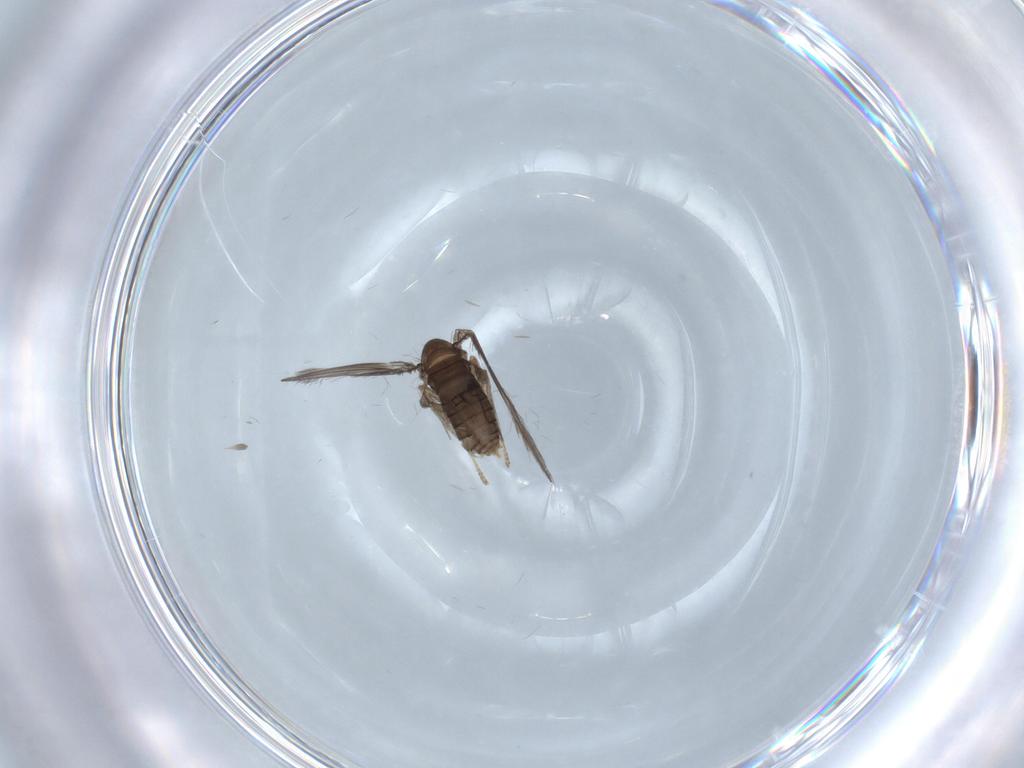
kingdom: Animalia
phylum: Arthropoda
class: Insecta
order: Diptera
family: Psychodidae
